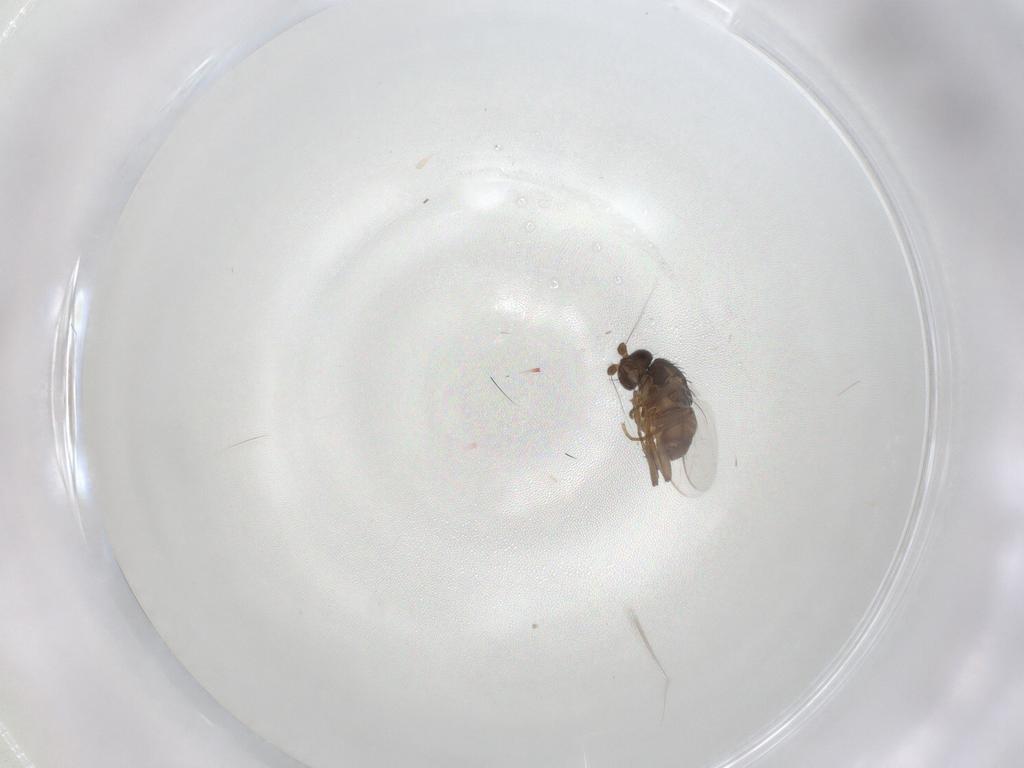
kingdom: Animalia
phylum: Arthropoda
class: Insecta
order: Diptera
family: Sphaeroceridae
